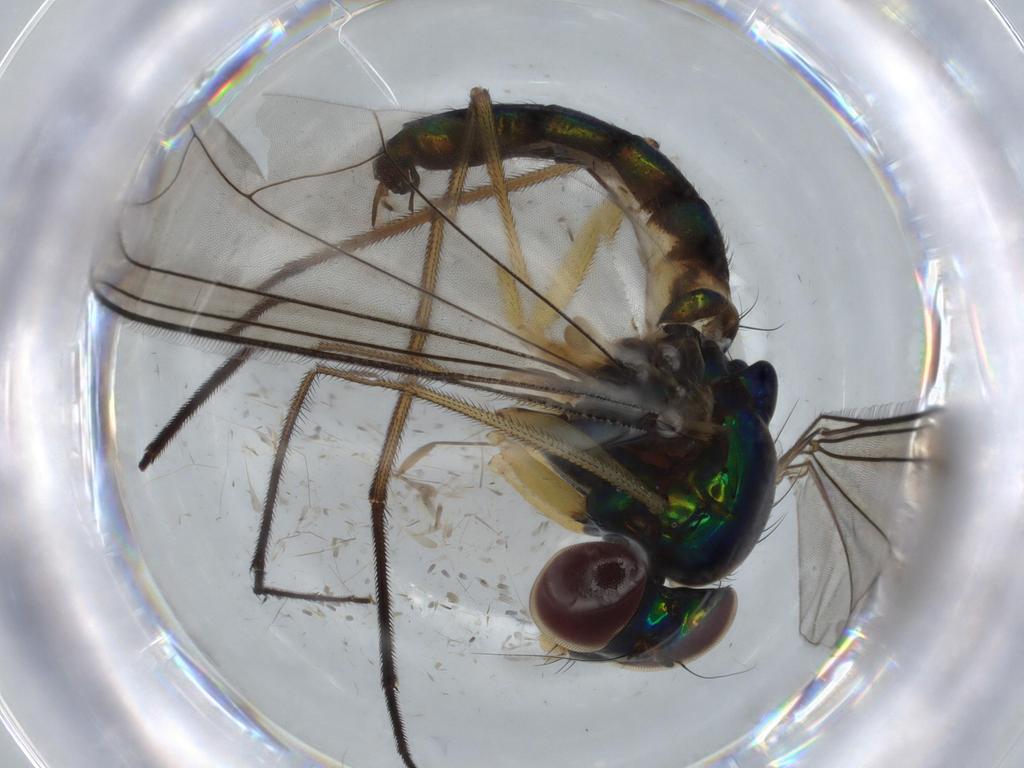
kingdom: Animalia
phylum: Arthropoda
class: Insecta
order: Diptera
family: Dolichopodidae
